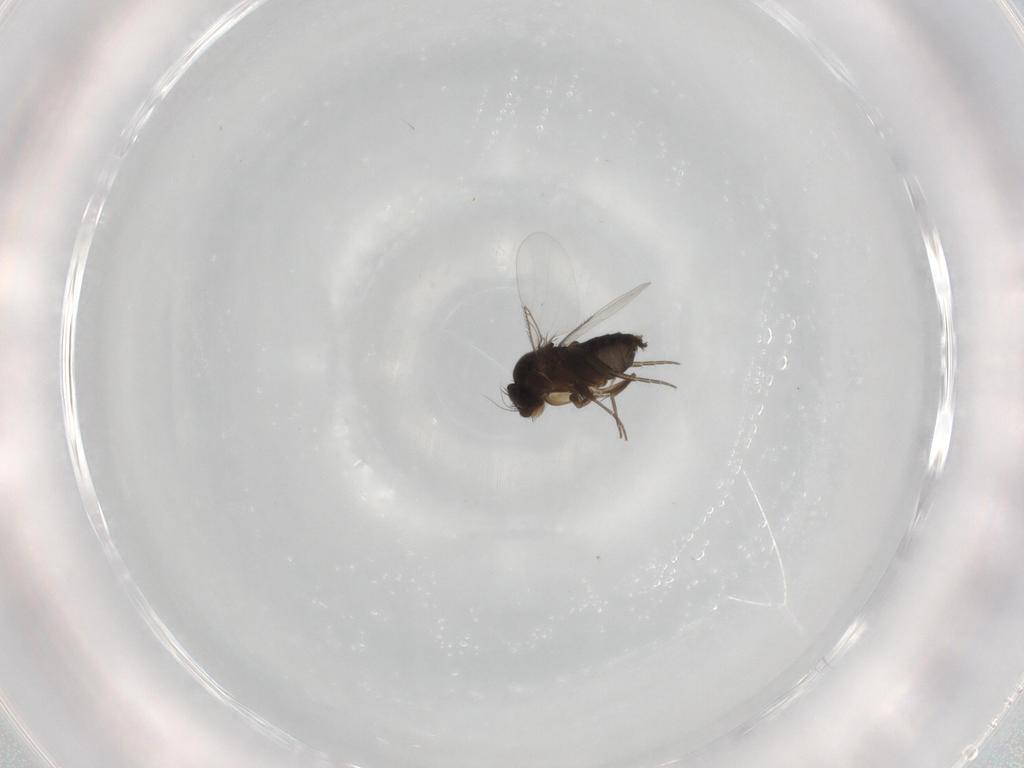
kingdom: Animalia
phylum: Arthropoda
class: Insecta
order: Diptera
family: Phoridae
